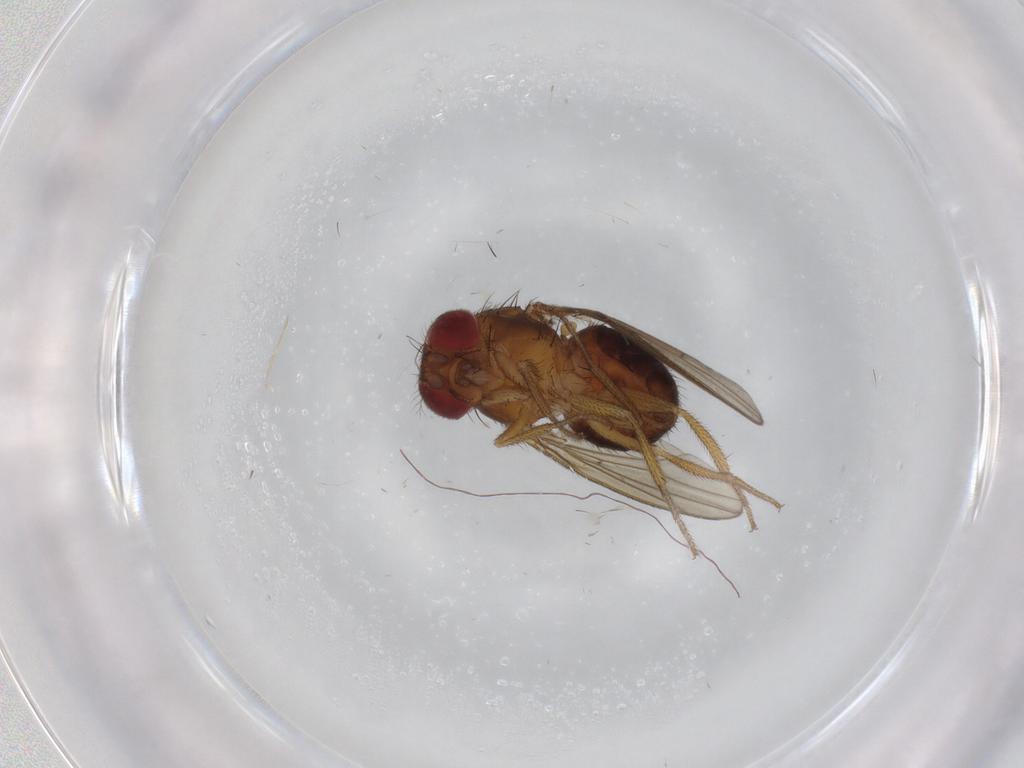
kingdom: Animalia
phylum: Arthropoda
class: Insecta
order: Diptera
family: Drosophilidae
